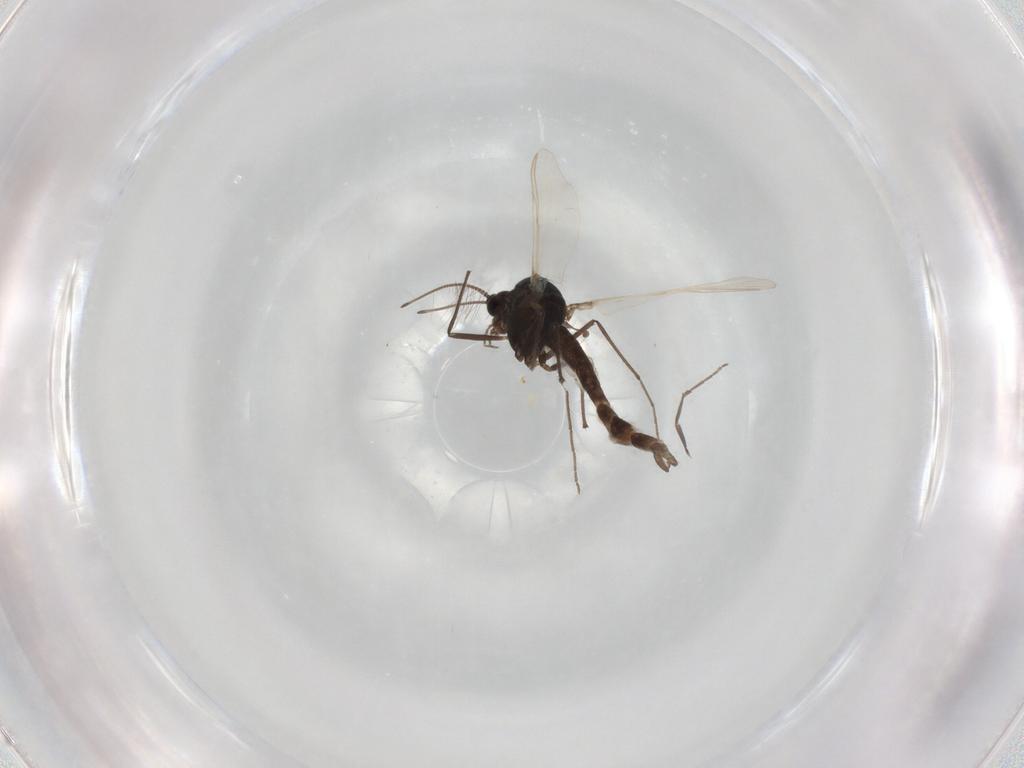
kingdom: Animalia
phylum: Arthropoda
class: Insecta
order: Diptera
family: Chironomidae
